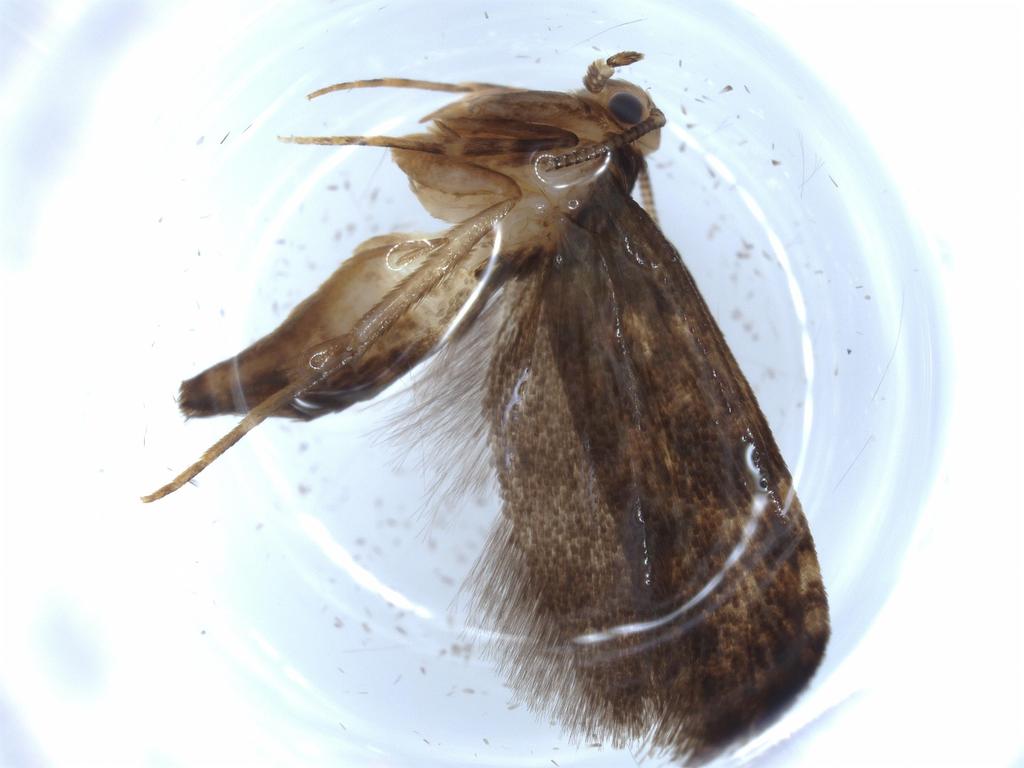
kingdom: Animalia
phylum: Arthropoda
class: Insecta
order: Lepidoptera
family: Tineidae
